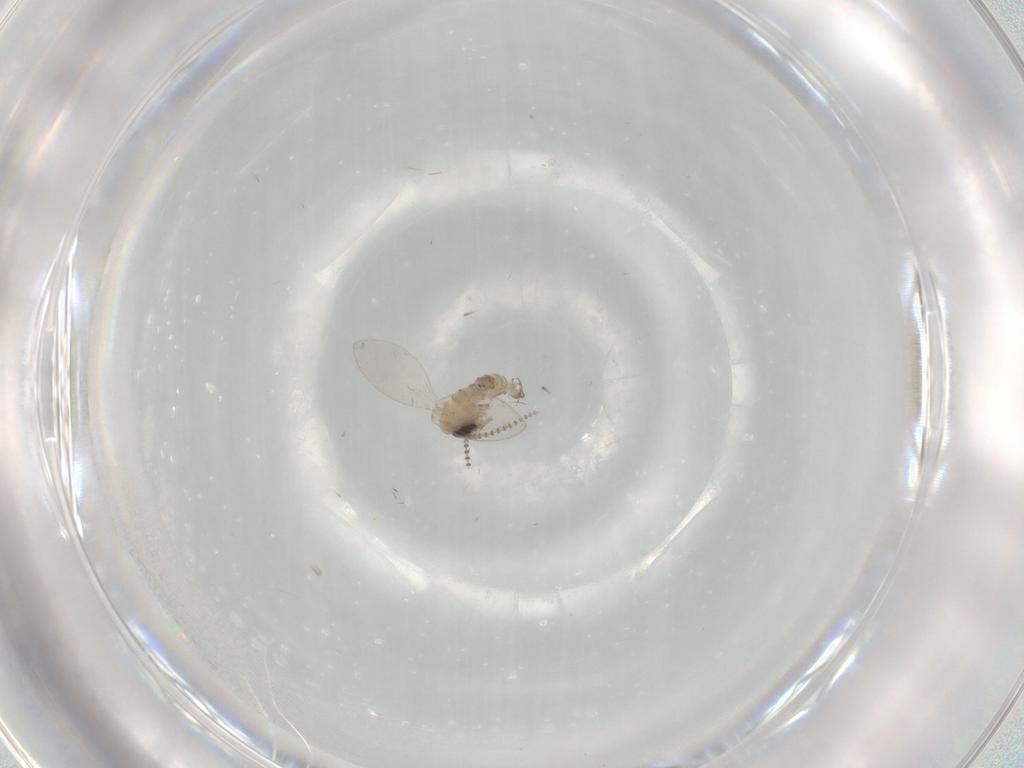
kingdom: Animalia
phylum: Arthropoda
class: Insecta
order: Diptera
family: Psychodidae
